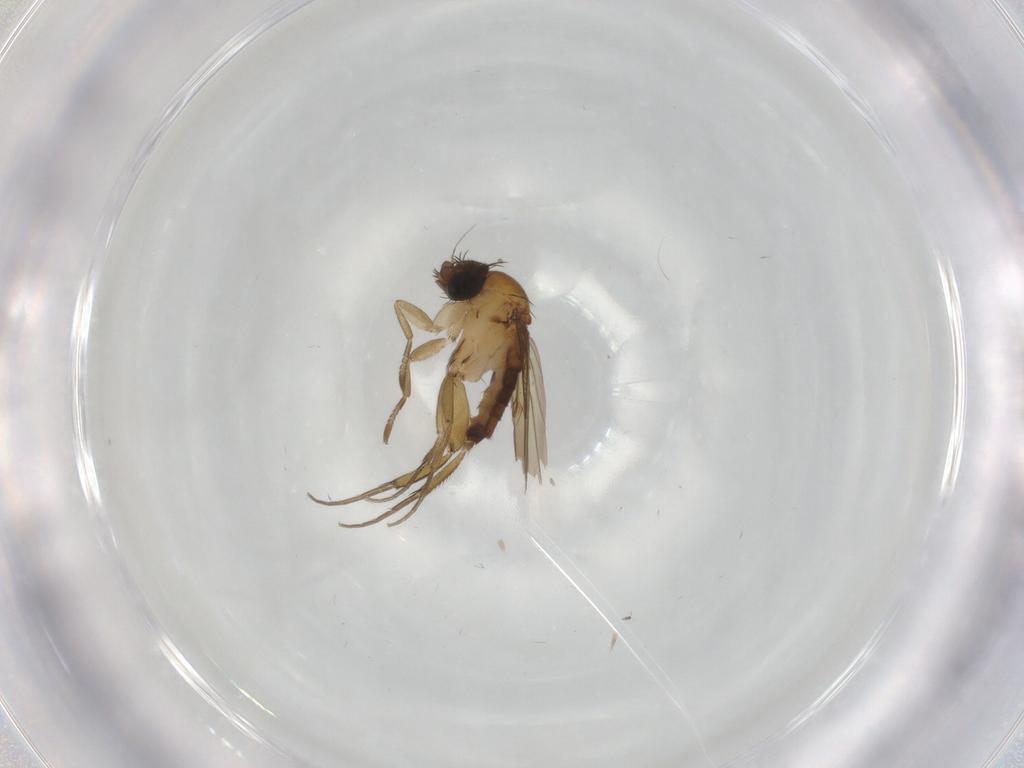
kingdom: Animalia
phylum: Arthropoda
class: Insecta
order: Diptera
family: Phoridae
